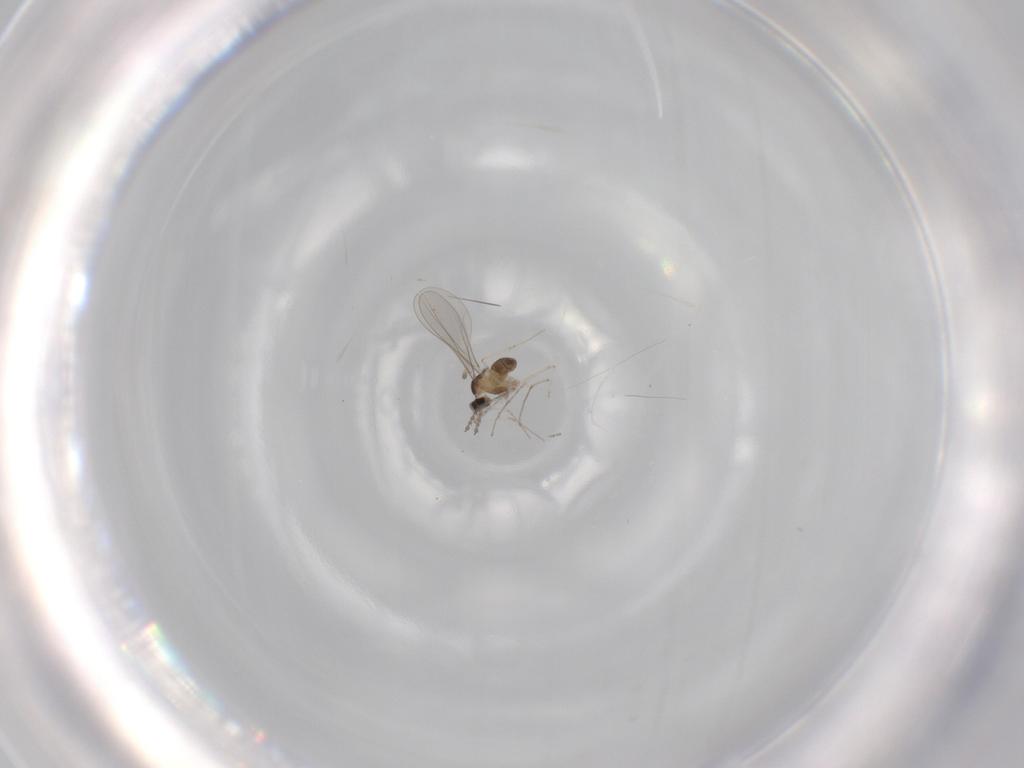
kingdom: Animalia
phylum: Arthropoda
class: Insecta
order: Diptera
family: Cecidomyiidae
